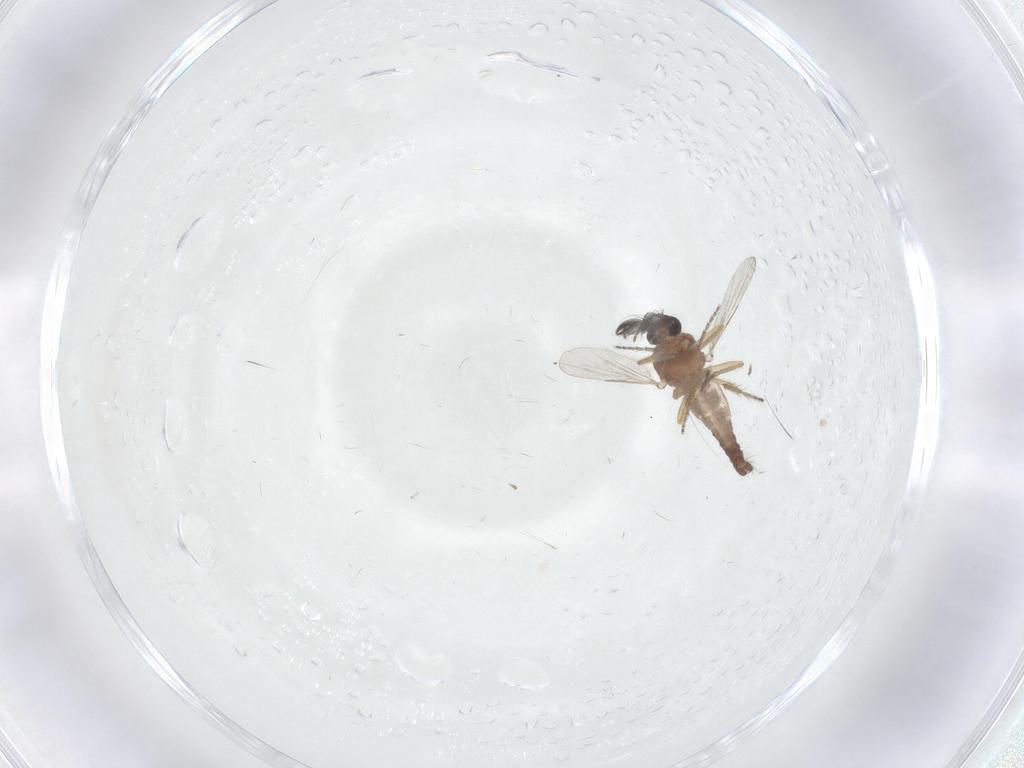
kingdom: Animalia
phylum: Arthropoda
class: Insecta
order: Diptera
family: Ceratopogonidae
